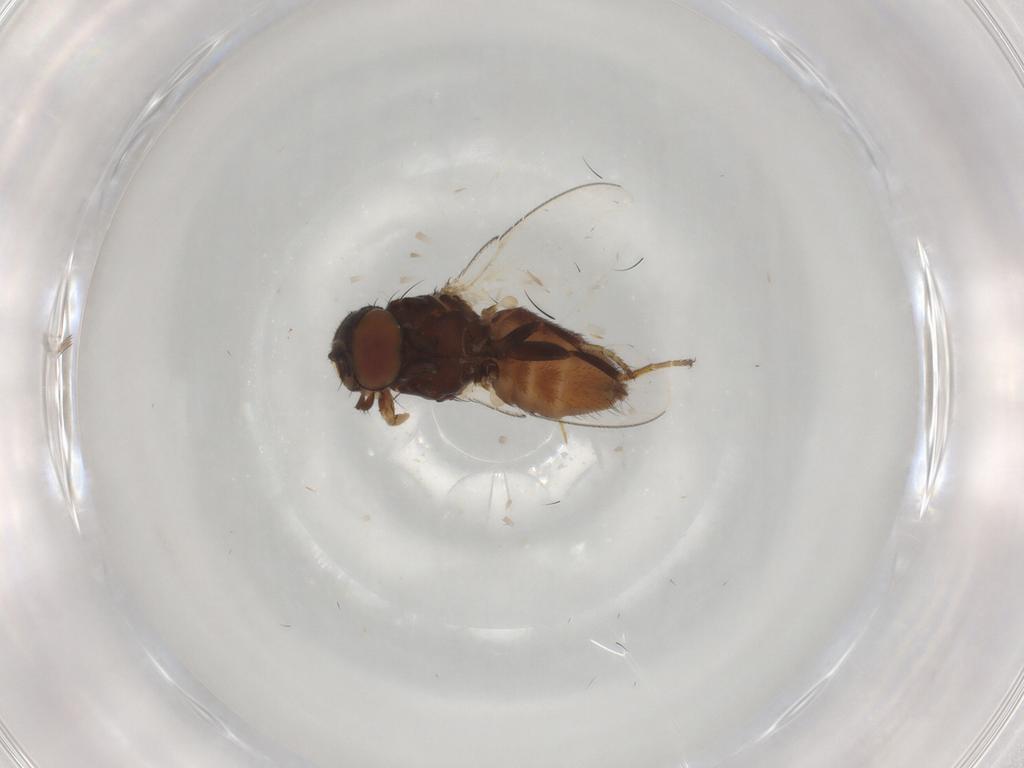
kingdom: Animalia
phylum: Arthropoda
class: Insecta
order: Diptera
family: Milichiidae
